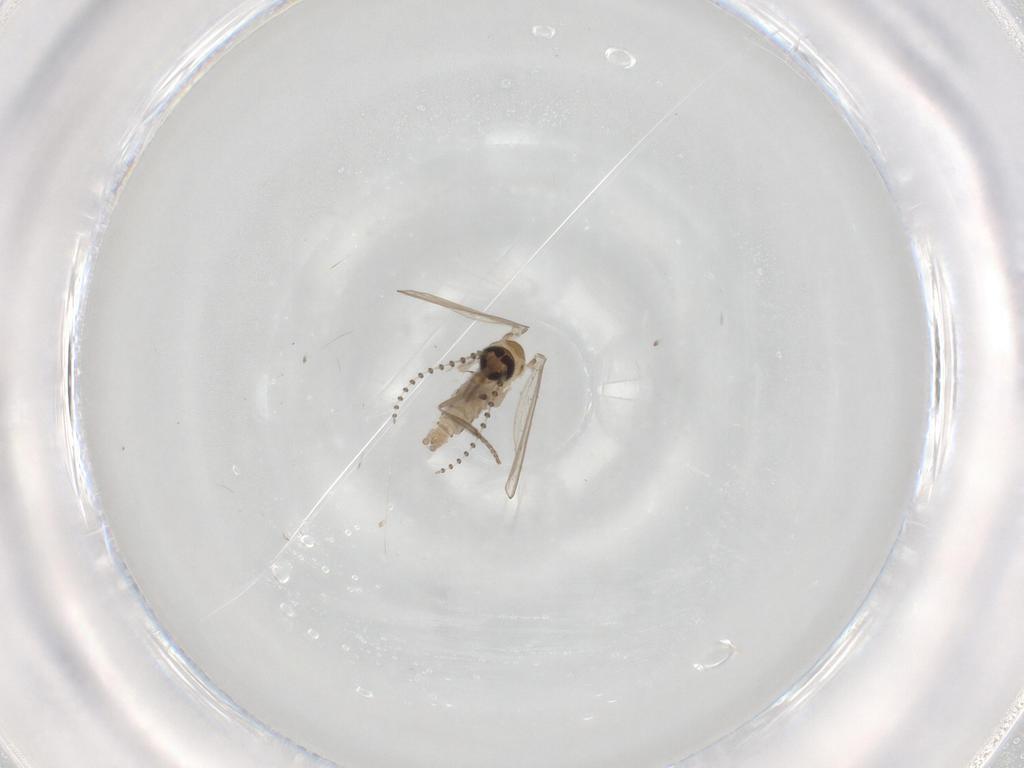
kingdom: Animalia
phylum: Arthropoda
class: Insecta
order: Diptera
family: Psychodidae
